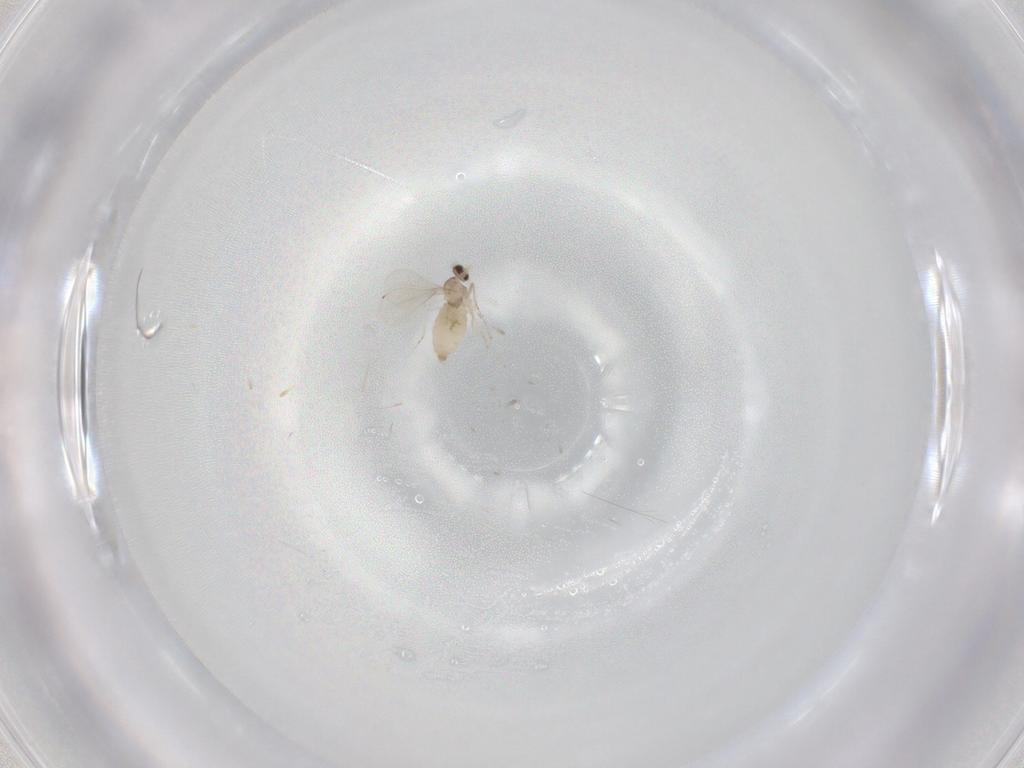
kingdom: Animalia
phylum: Arthropoda
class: Insecta
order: Diptera
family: Cecidomyiidae
